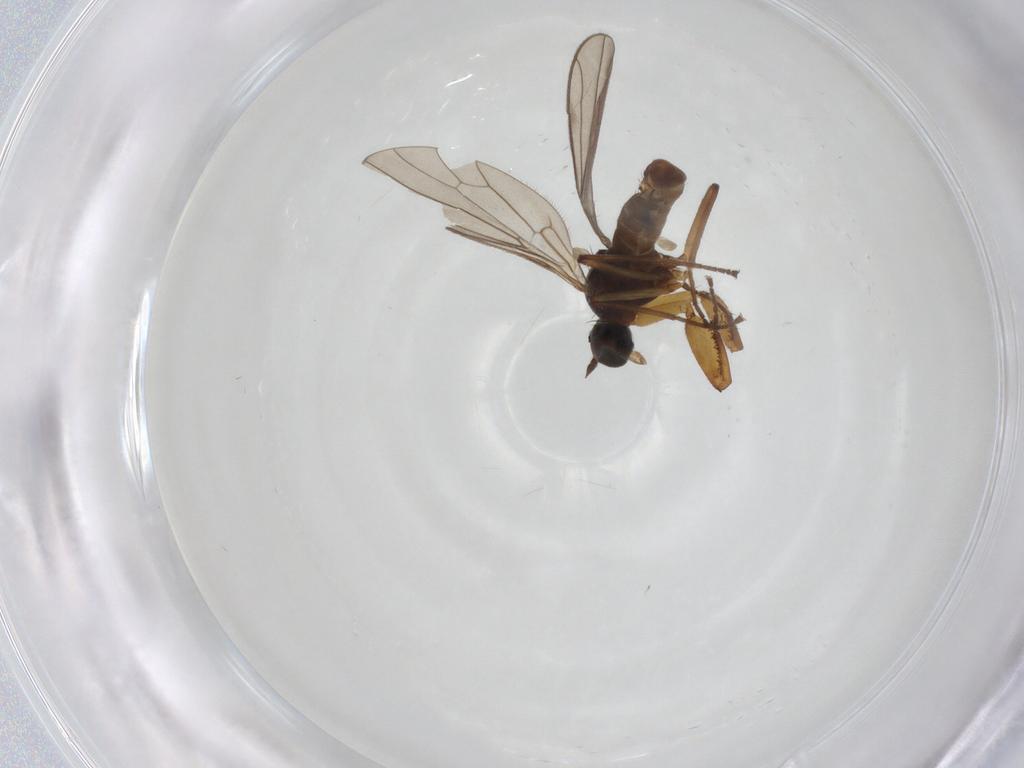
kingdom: Animalia
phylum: Arthropoda
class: Insecta
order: Diptera
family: Empididae
